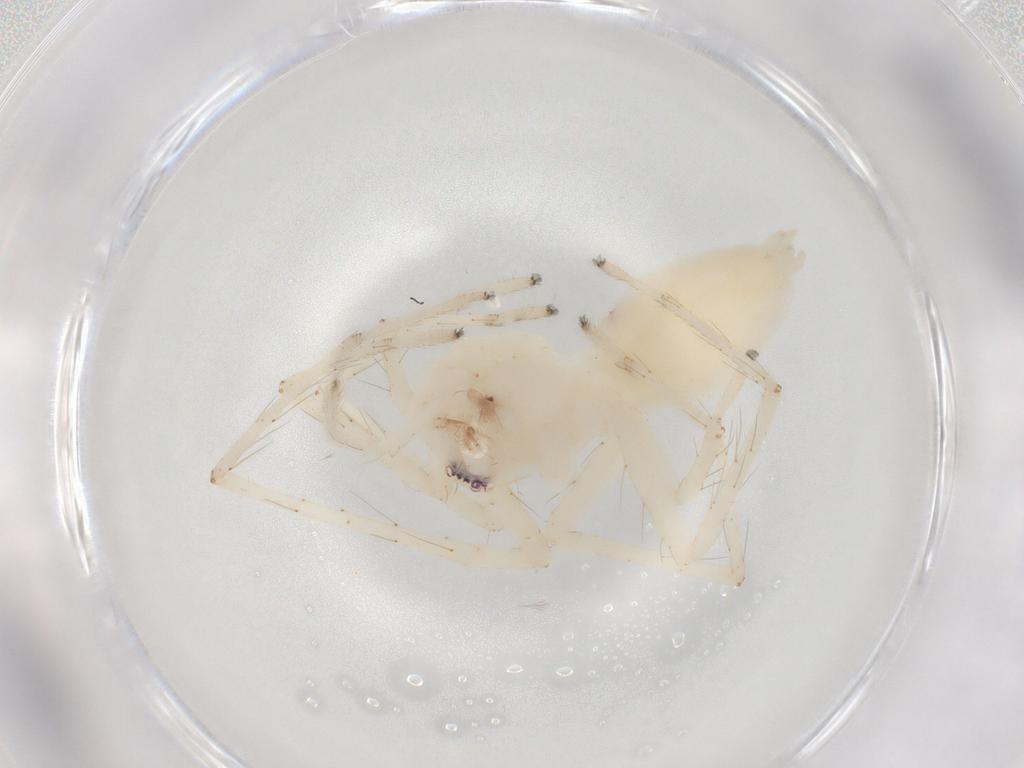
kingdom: Animalia
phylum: Arthropoda
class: Arachnida
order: Araneae
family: Anyphaenidae
